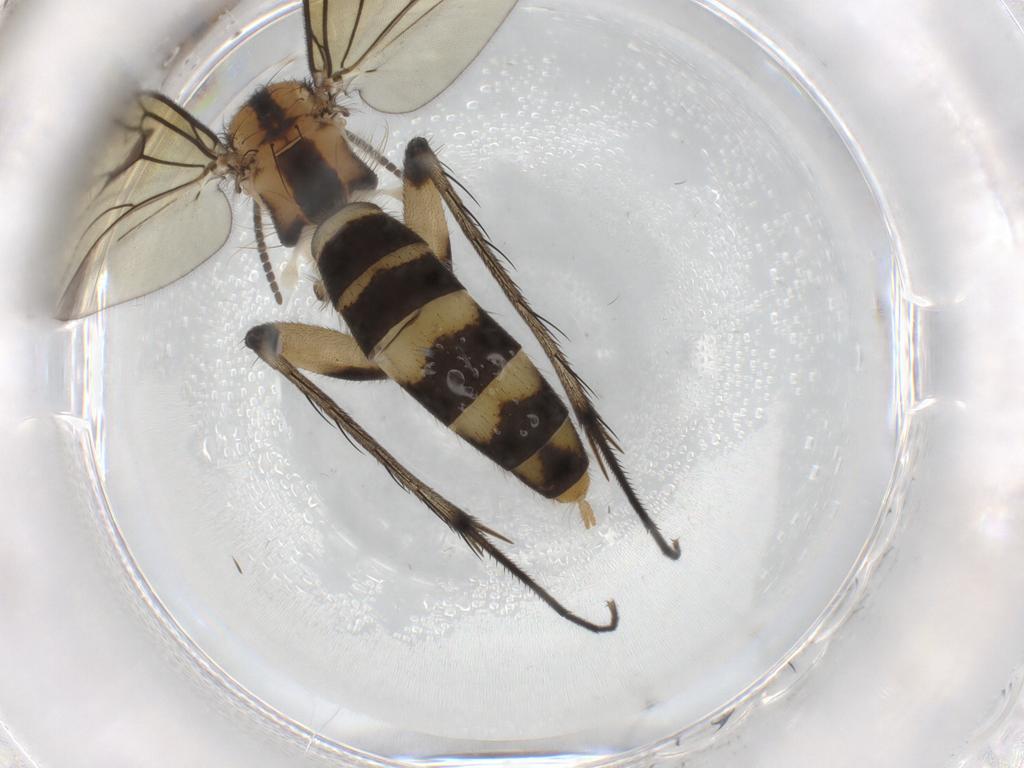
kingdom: Animalia
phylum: Arthropoda
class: Insecta
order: Diptera
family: Mycetophilidae
